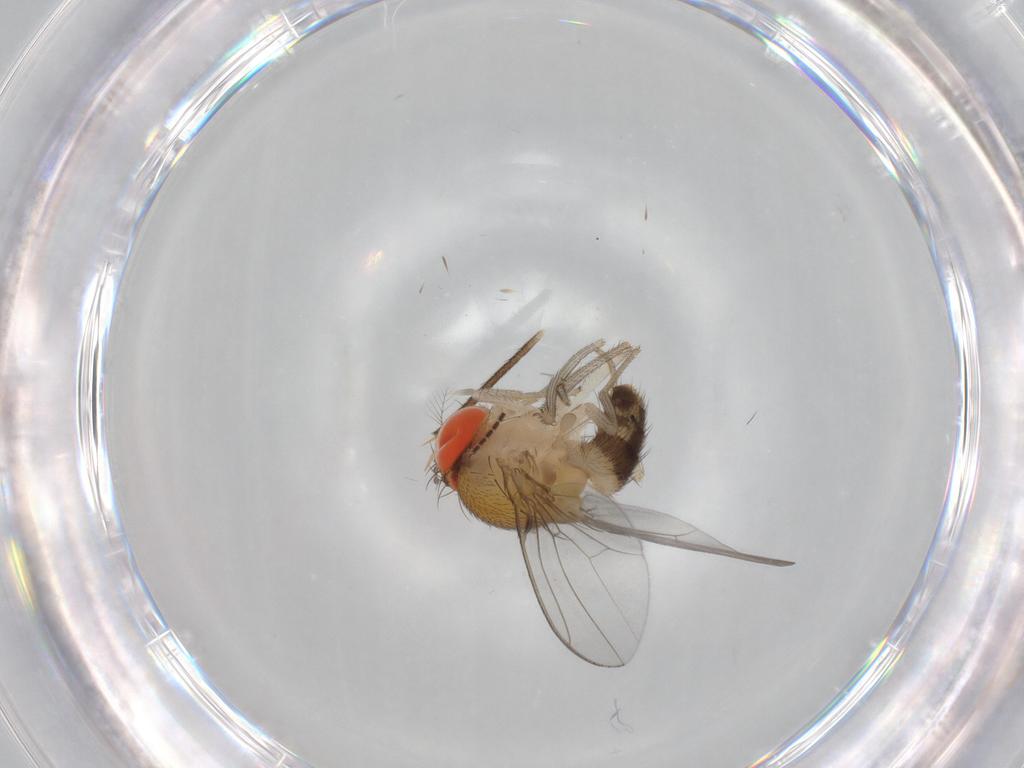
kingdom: Animalia
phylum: Arthropoda
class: Insecta
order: Diptera
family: Drosophilidae
